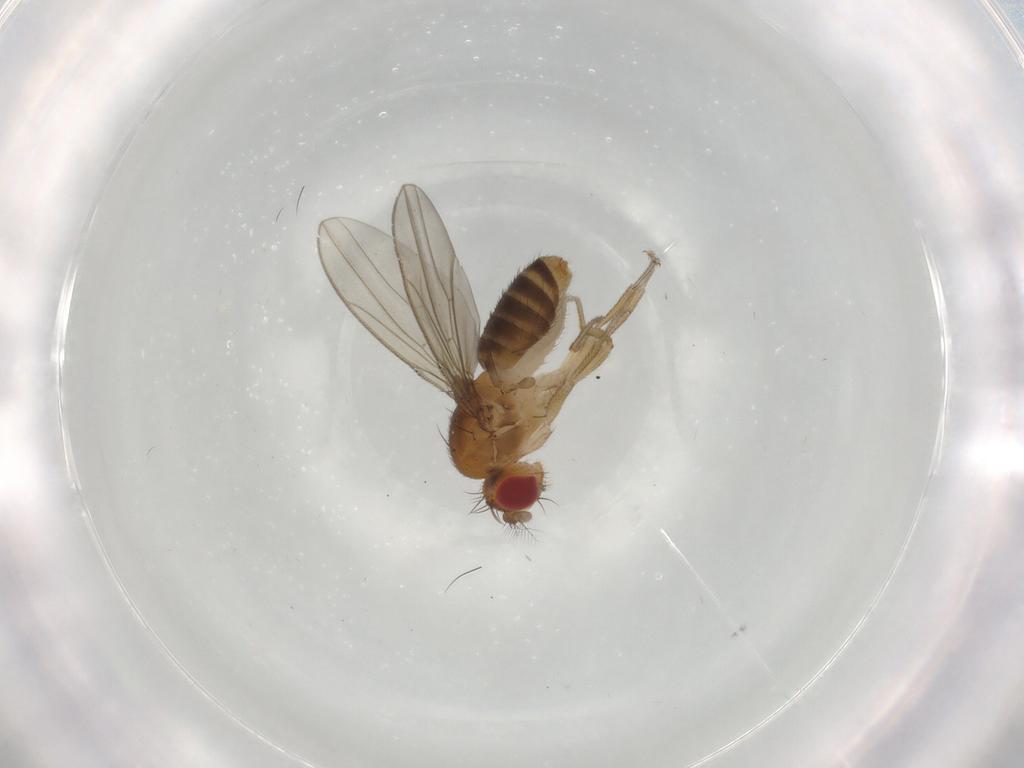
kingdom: Animalia
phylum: Arthropoda
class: Insecta
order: Diptera
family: Drosophilidae
